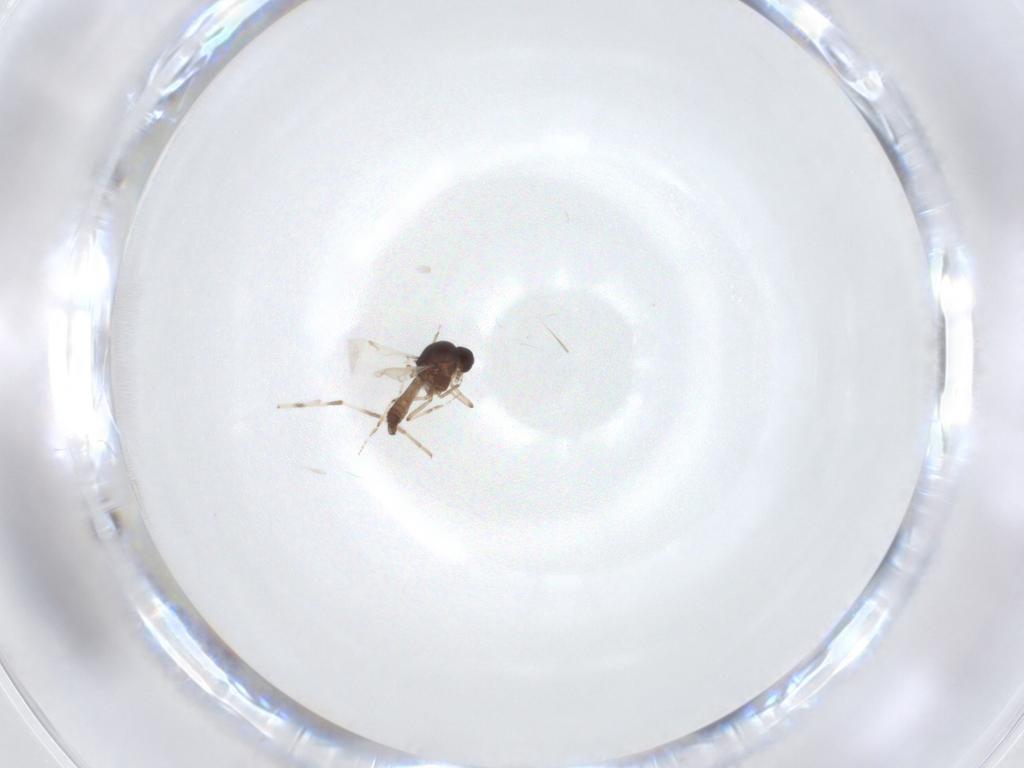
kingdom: Animalia
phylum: Arthropoda
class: Insecta
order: Diptera
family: Ceratopogonidae
